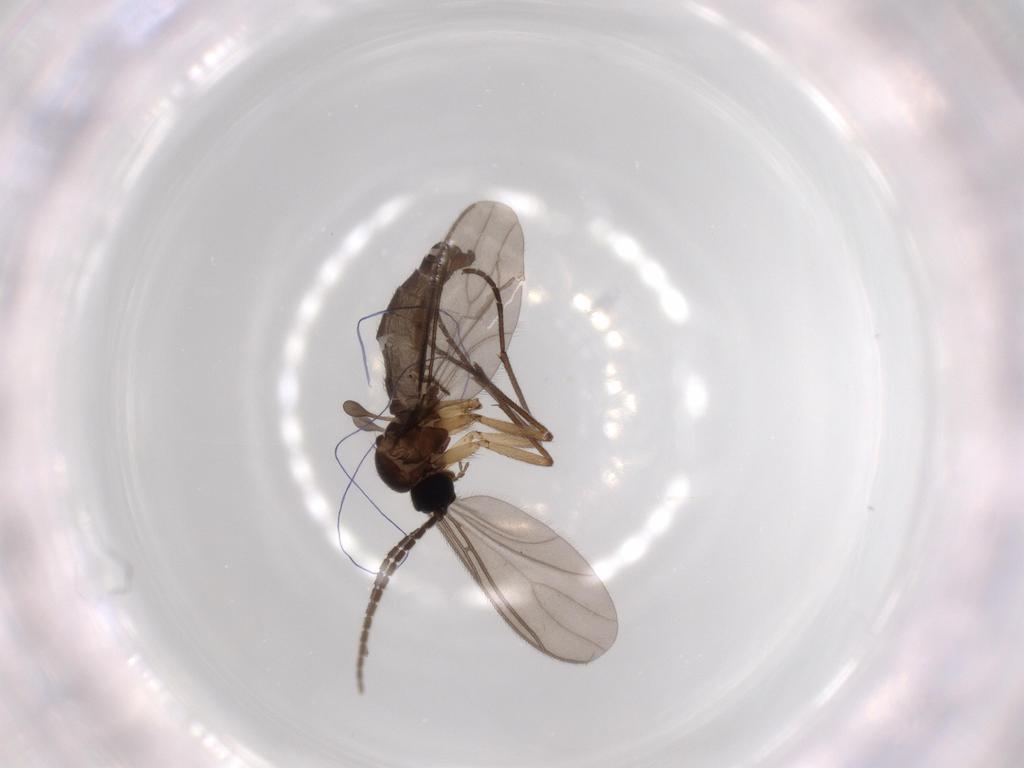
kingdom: Animalia
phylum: Arthropoda
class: Insecta
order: Diptera
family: Sciaridae
